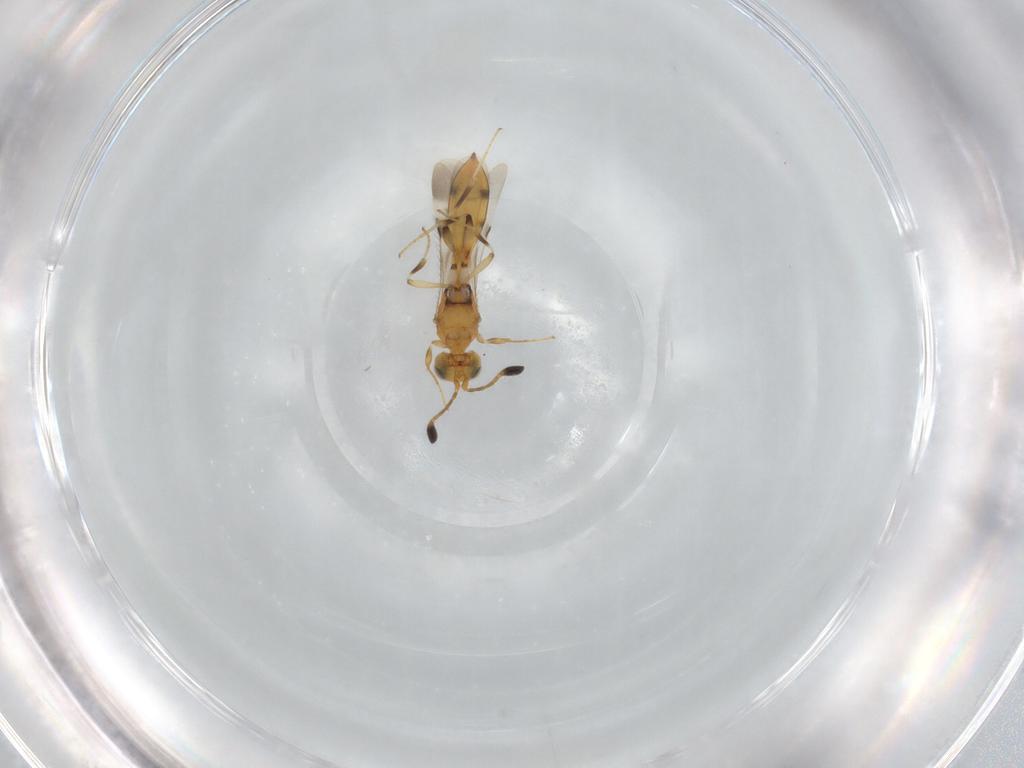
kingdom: Animalia
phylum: Arthropoda
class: Insecta
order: Hymenoptera
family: Scelionidae
